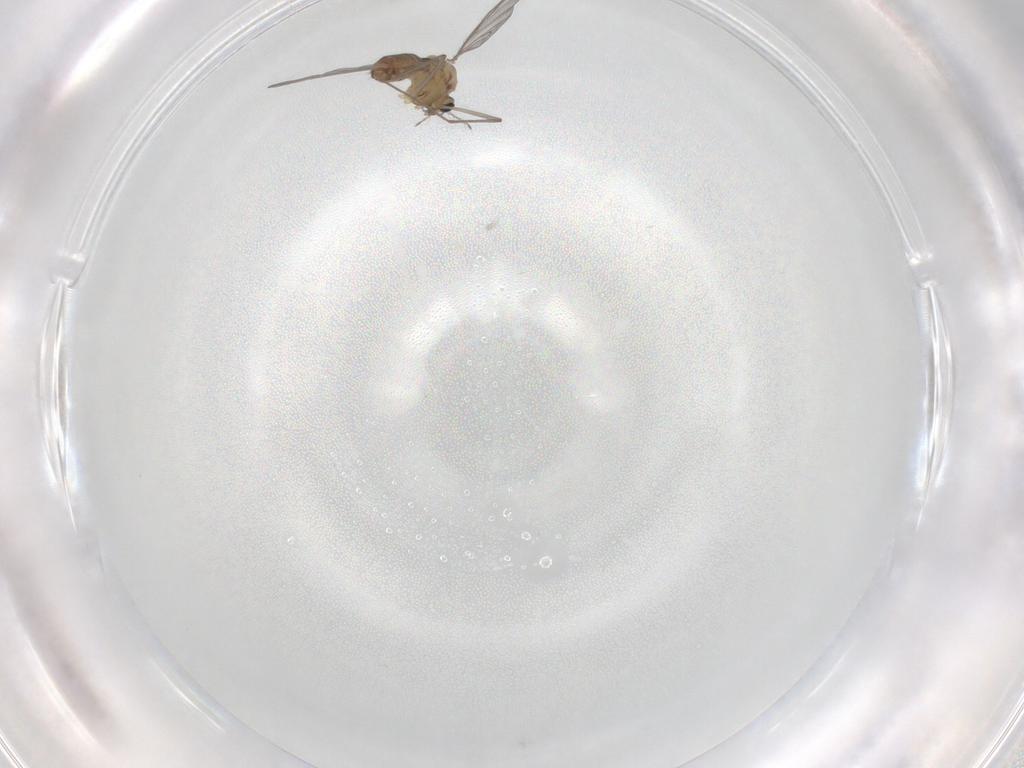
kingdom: Animalia
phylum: Arthropoda
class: Insecta
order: Diptera
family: Chironomidae
